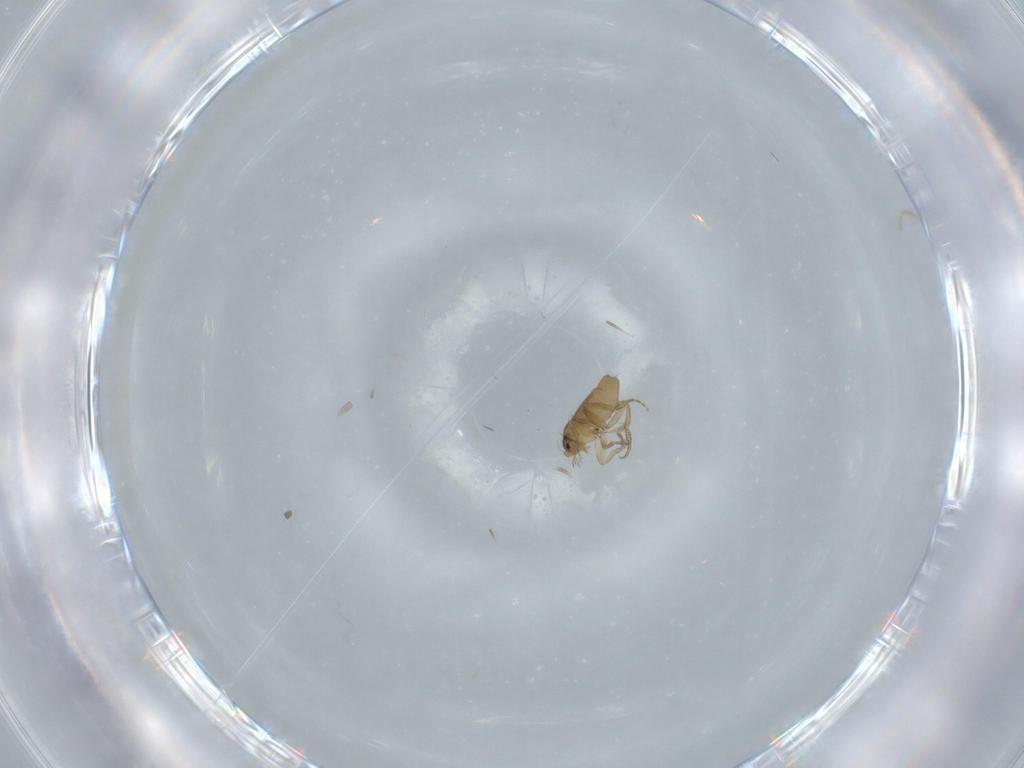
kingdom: Animalia
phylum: Arthropoda
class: Insecta
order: Diptera
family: Phoridae
